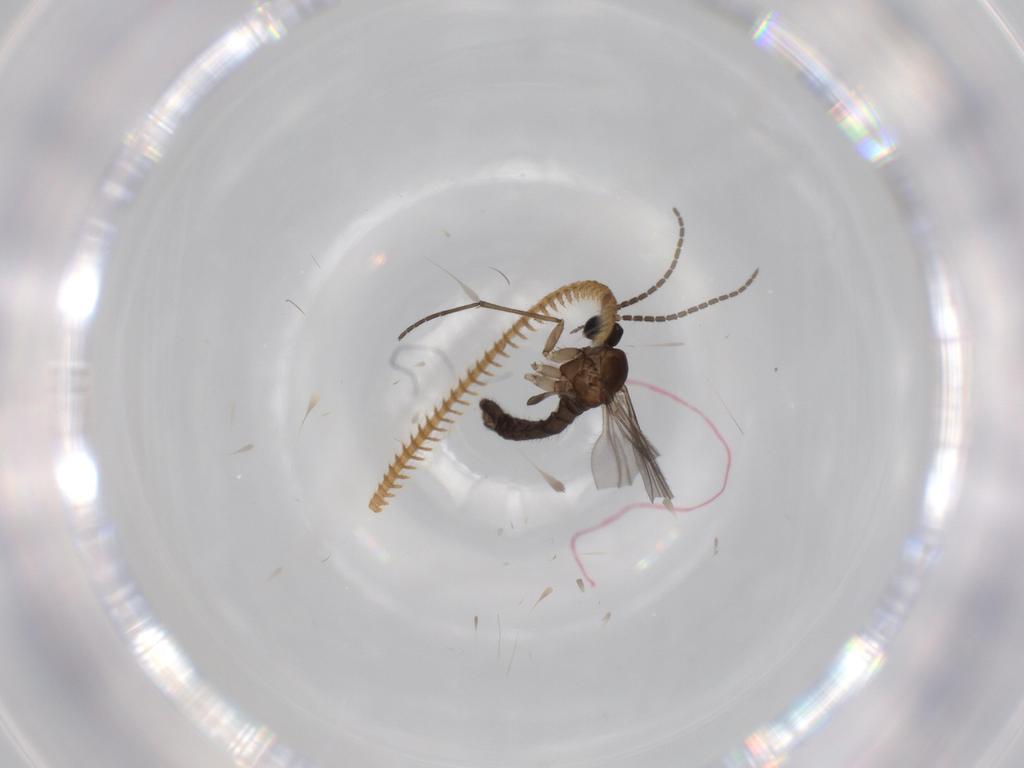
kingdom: Animalia
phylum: Arthropoda
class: Insecta
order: Diptera
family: Sciaridae
